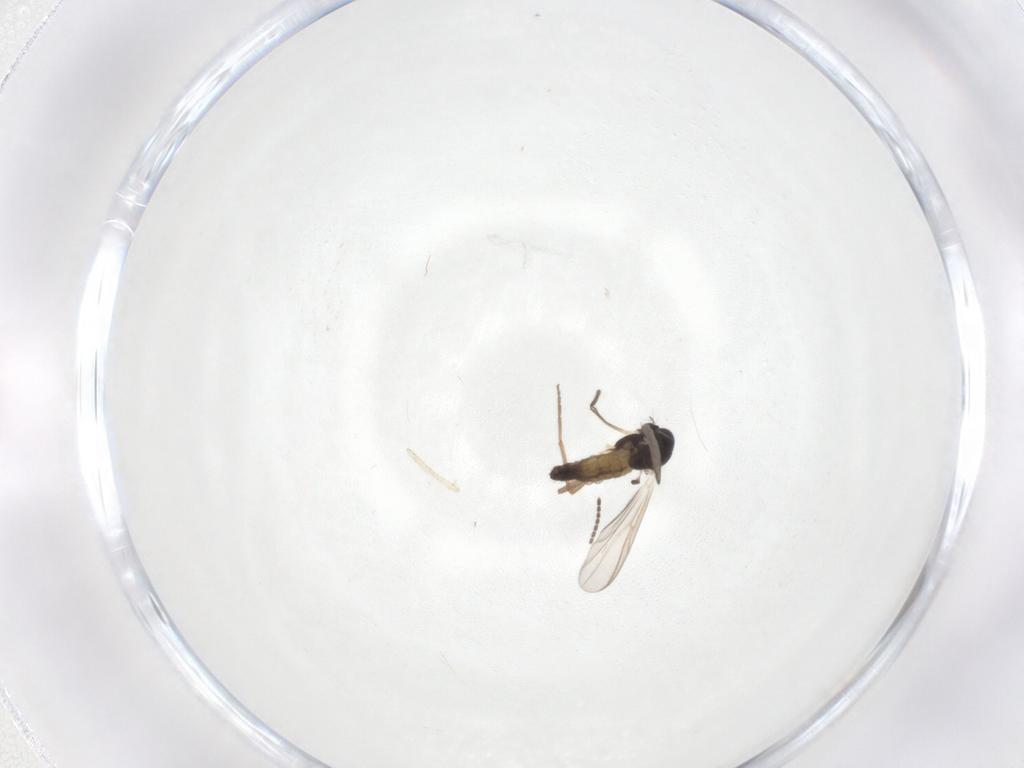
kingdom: Animalia
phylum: Arthropoda
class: Insecta
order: Diptera
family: Chironomidae
